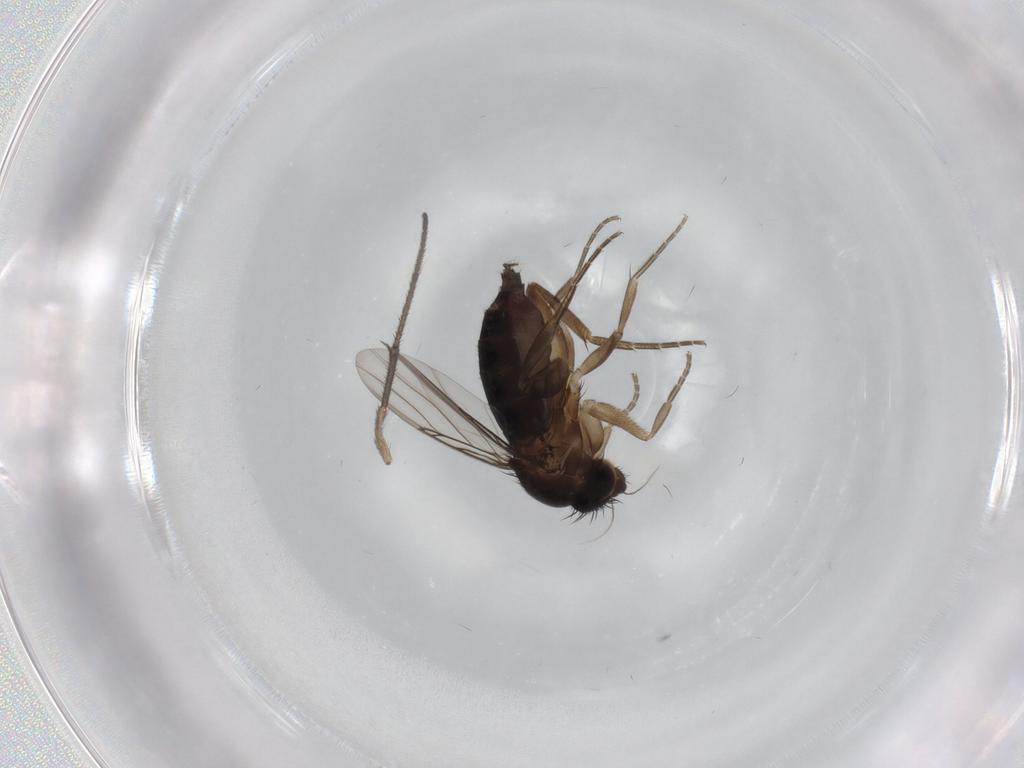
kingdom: Animalia
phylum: Arthropoda
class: Insecta
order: Diptera
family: Phoridae
